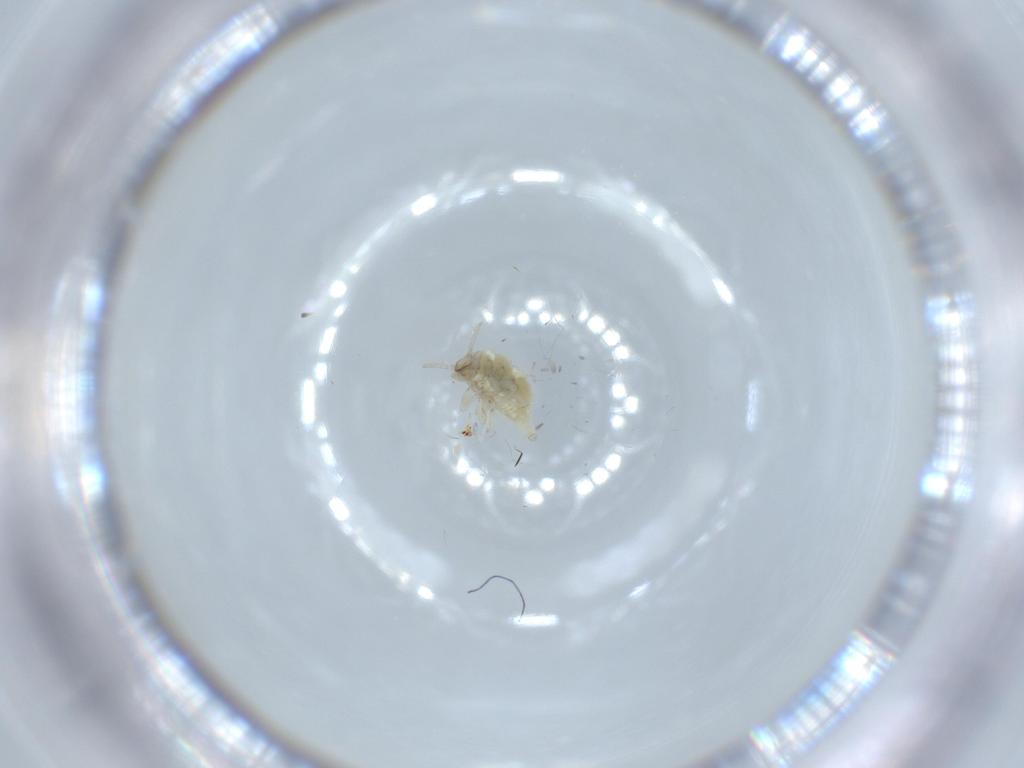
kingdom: Animalia
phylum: Arthropoda
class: Insecta
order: Neuroptera
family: Coniopterygidae
